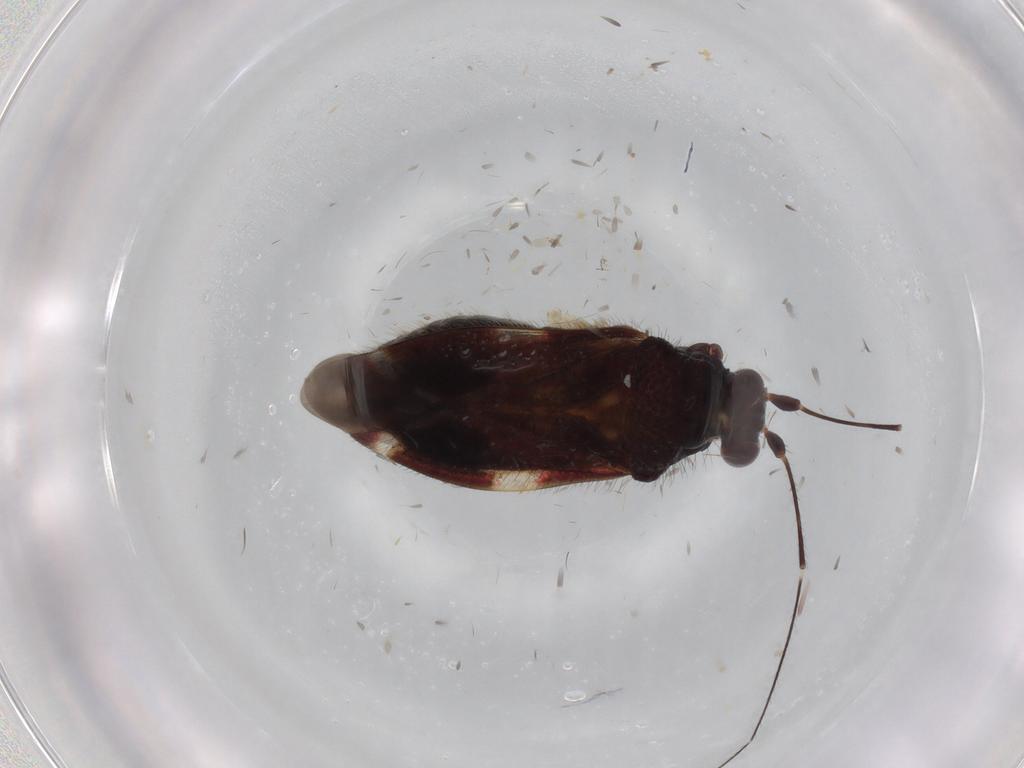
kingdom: Animalia
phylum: Arthropoda
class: Insecta
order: Hemiptera
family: Miridae
